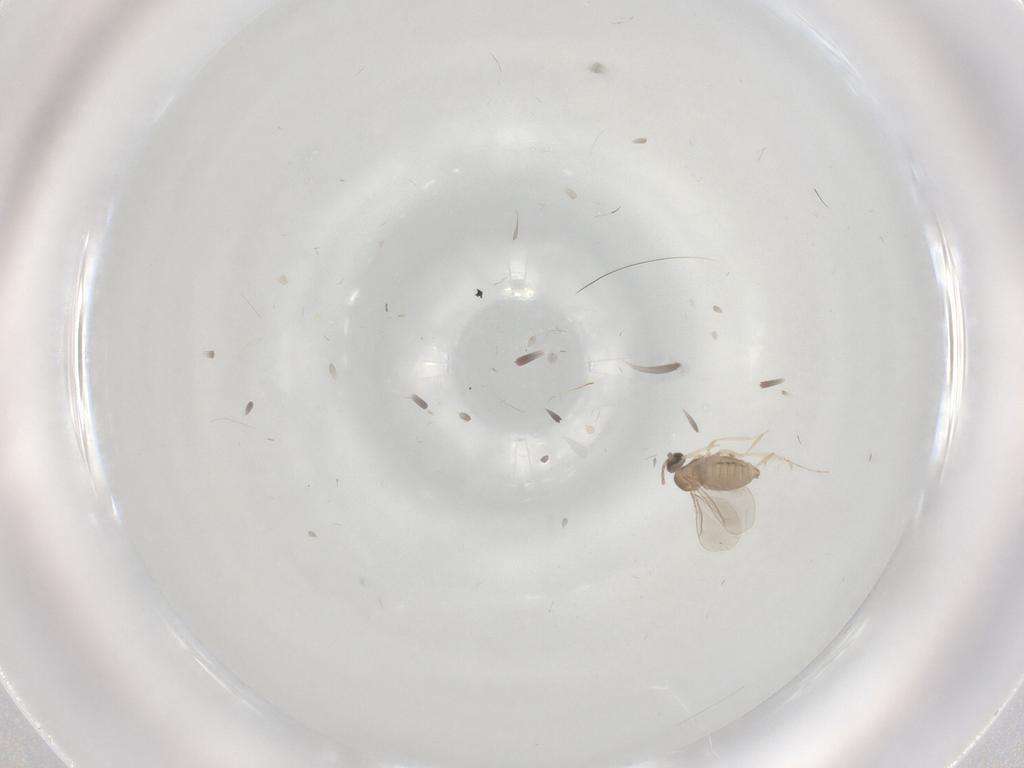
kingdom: Animalia
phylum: Arthropoda
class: Insecta
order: Diptera
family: Cecidomyiidae
